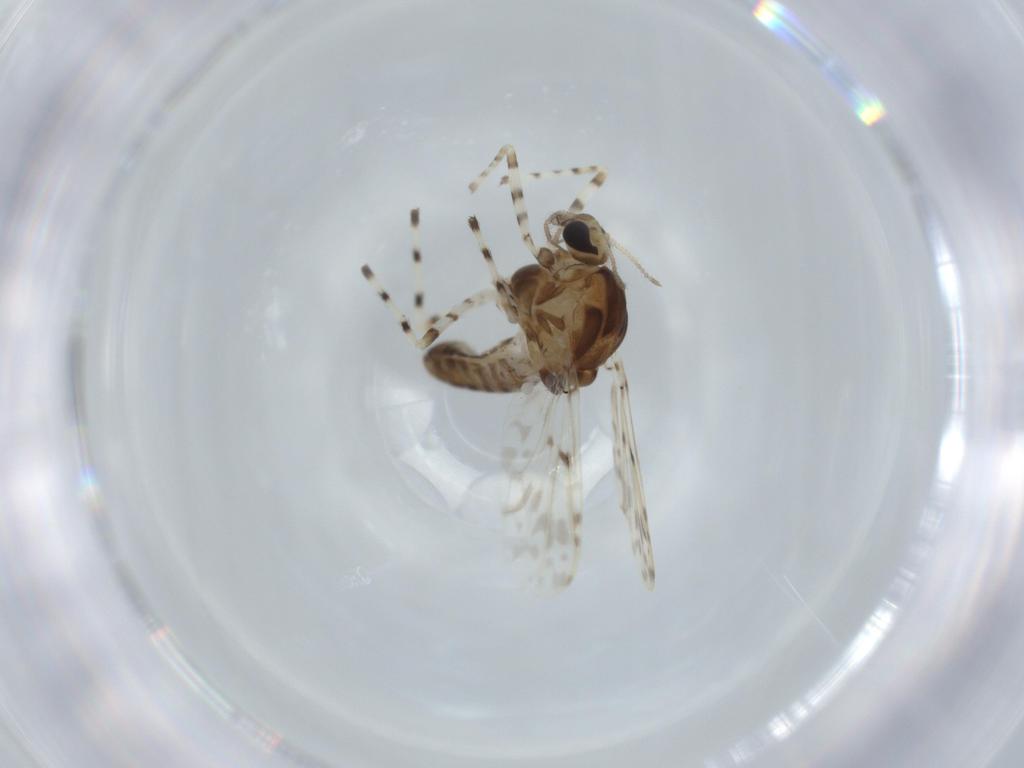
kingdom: Animalia
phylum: Arthropoda
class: Insecta
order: Diptera
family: Chironomidae
